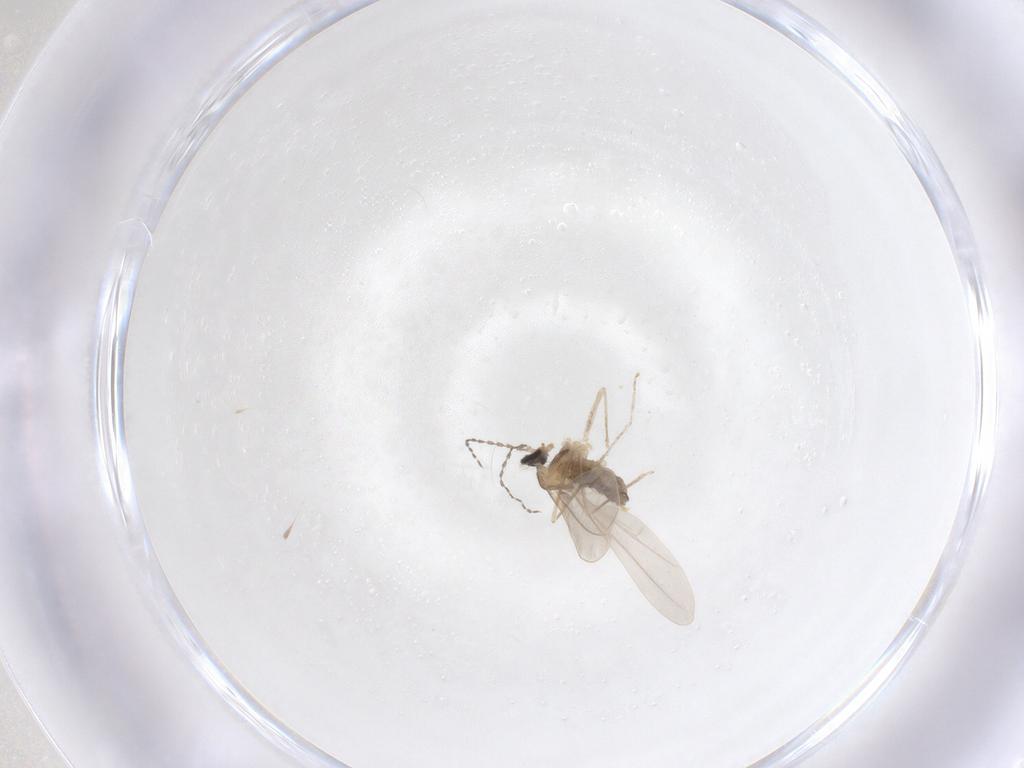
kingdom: Animalia
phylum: Arthropoda
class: Insecta
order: Diptera
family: Cecidomyiidae
